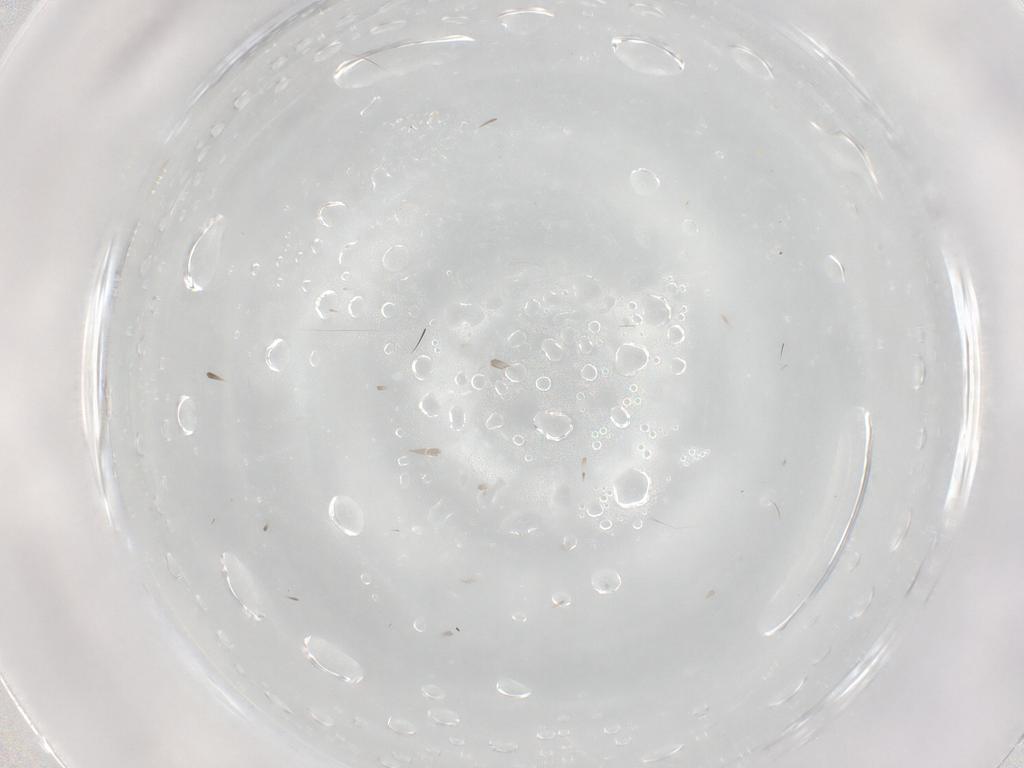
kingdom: Animalia
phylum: Arthropoda
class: Insecta
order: Hymenoptera
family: Mymaridae
